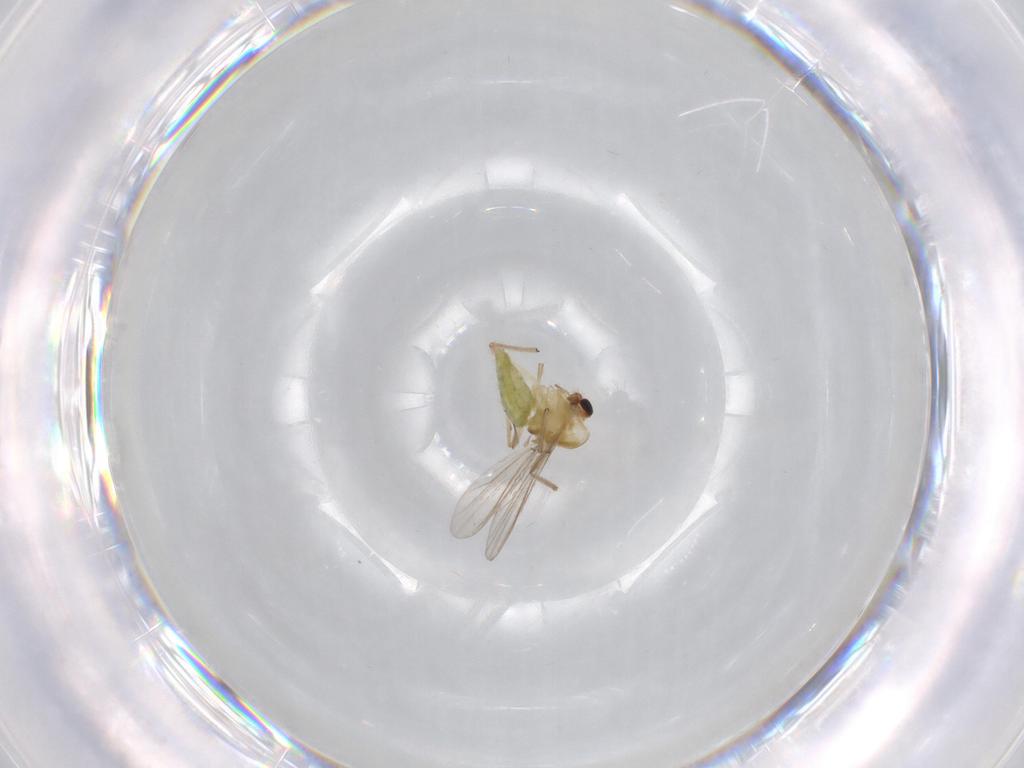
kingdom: Animalia
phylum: Arthropoda
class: Insecta
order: Diptera
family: Chironomidae
